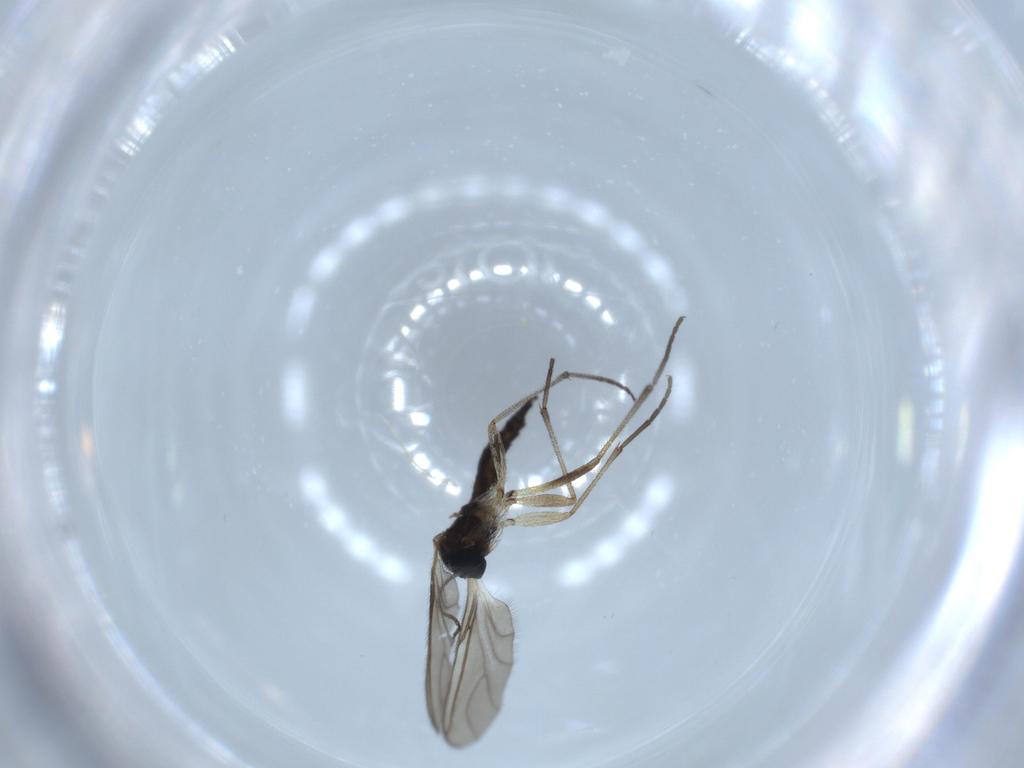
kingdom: Animalia
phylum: Arthropoda
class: Insecta
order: Diptera
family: Sciaridae
